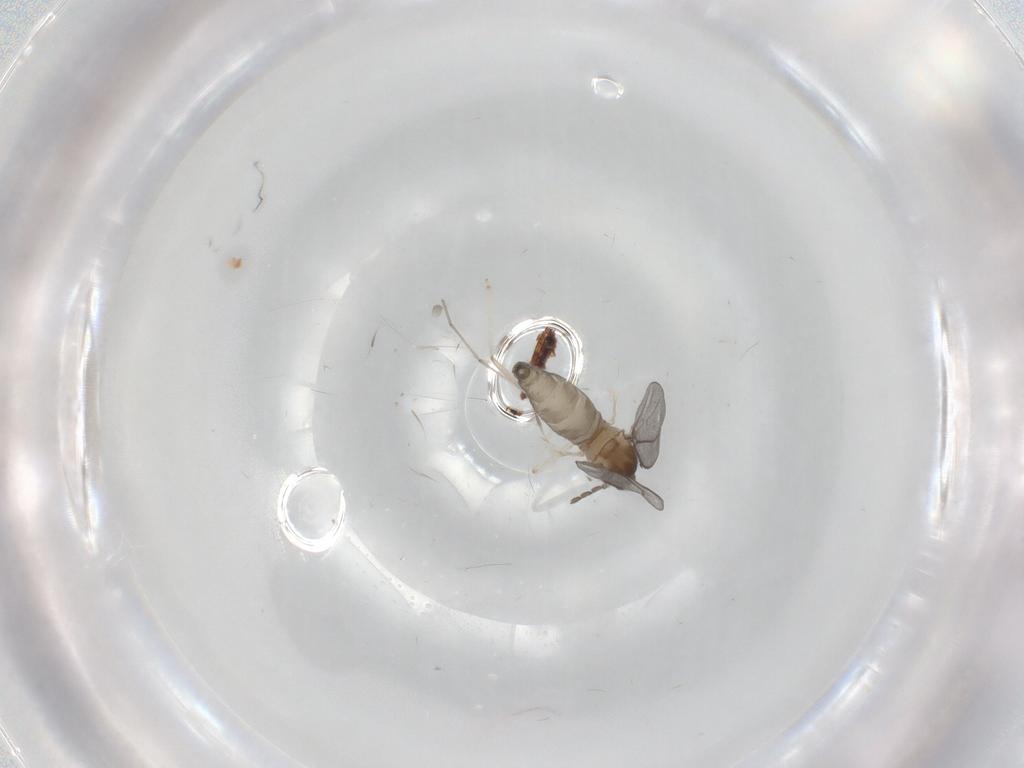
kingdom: Animalia
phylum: Arthropoda
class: Insecta
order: Diptera
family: Cecidomyiidae
